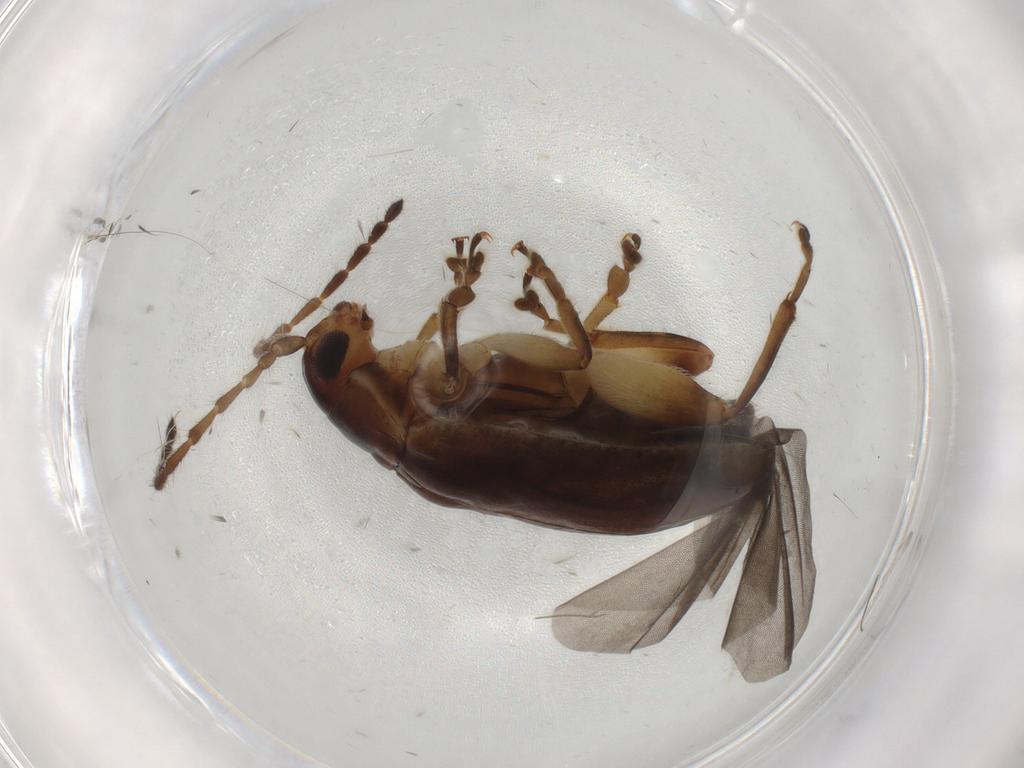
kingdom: Animalia
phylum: Arthropoda
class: Insecta
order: Coleoptera
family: Chrysomelidae
